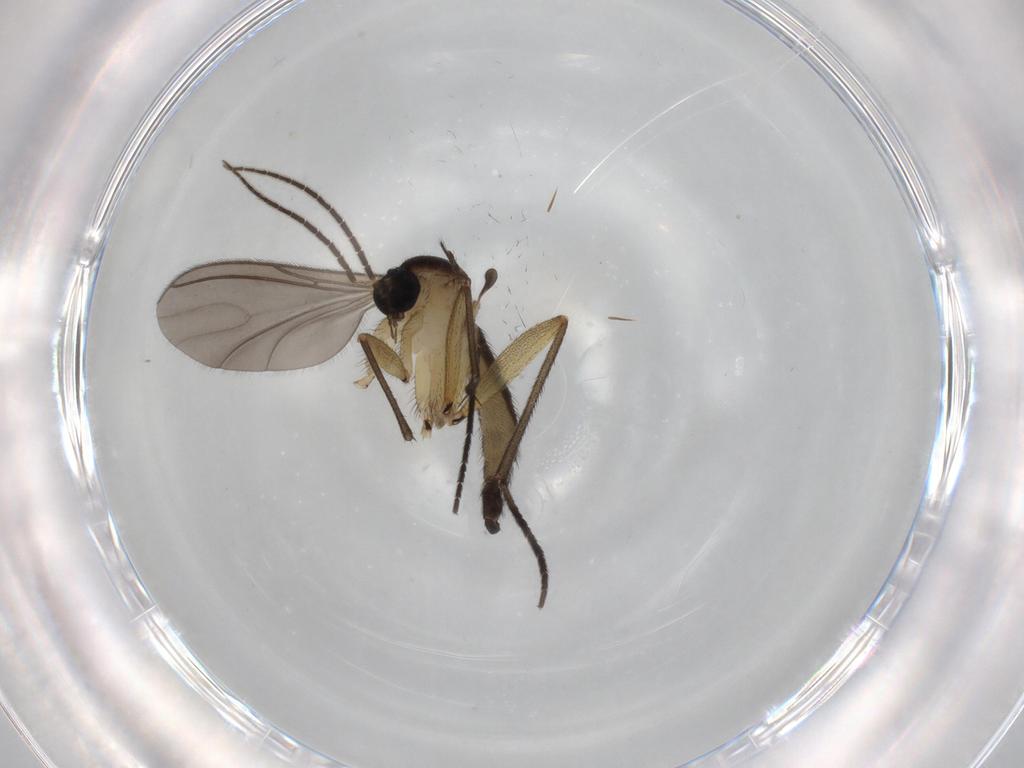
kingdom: Animalia
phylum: Arthropoda
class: Insecta
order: Diptera
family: Sciaridae
